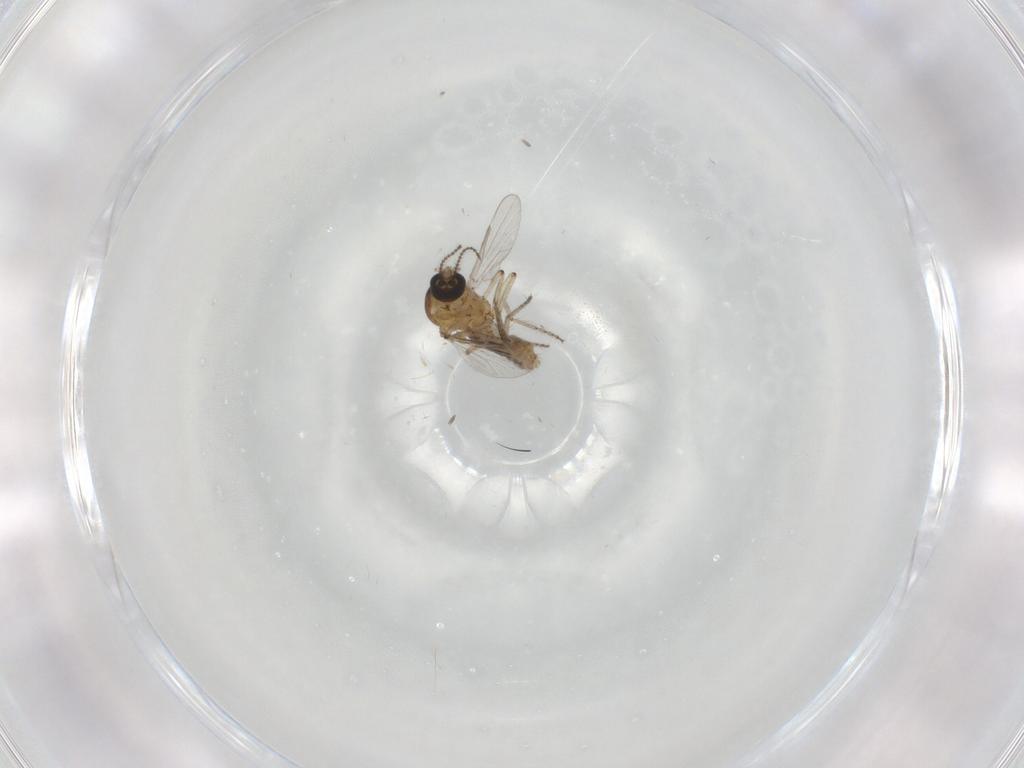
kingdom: Animalia
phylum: Arthropoda
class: Insecta
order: Diptera
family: Ceratopogonidae
